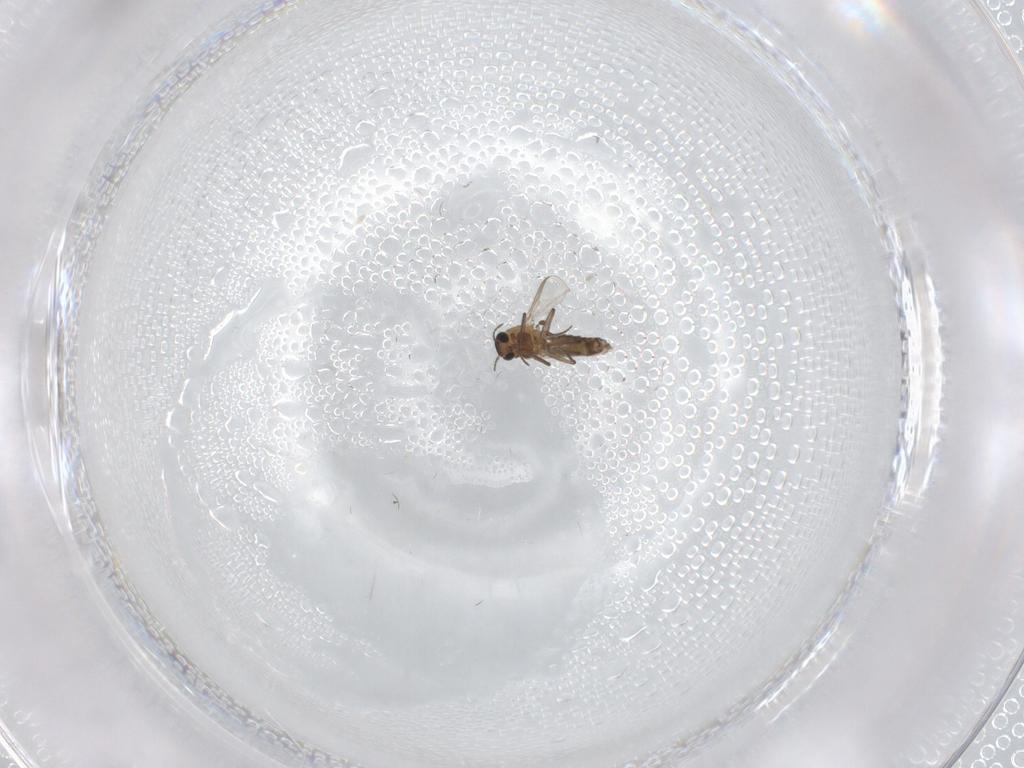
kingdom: Animalia
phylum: Arthropoda
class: Insecta
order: Diptera
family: Chironomidae
